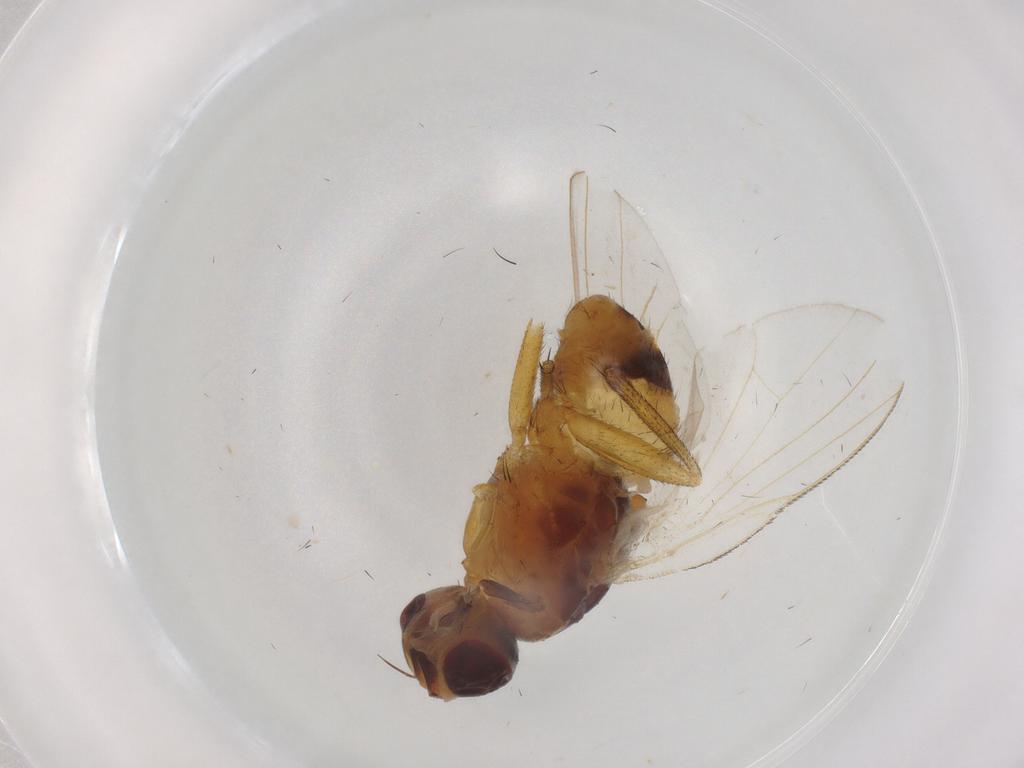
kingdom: Animalia
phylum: Arthropoda
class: Insecta
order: Diptera
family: Muscidae
